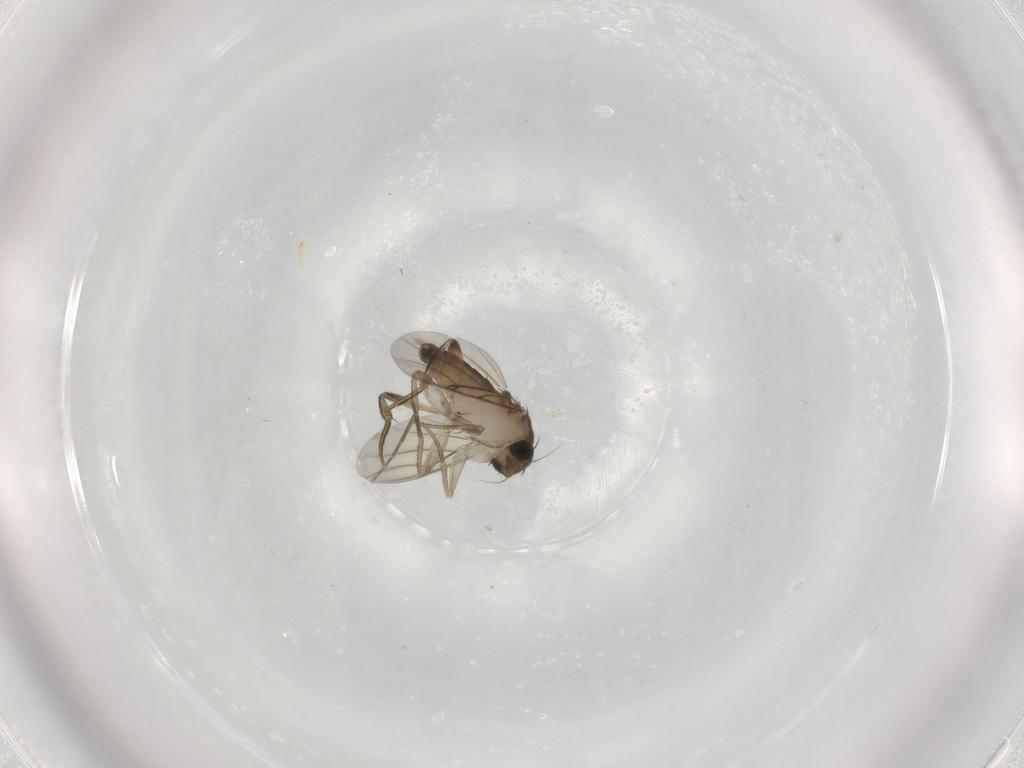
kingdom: Animalia
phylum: Arthropoda
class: Insecta
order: Diptera
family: Phoridae
